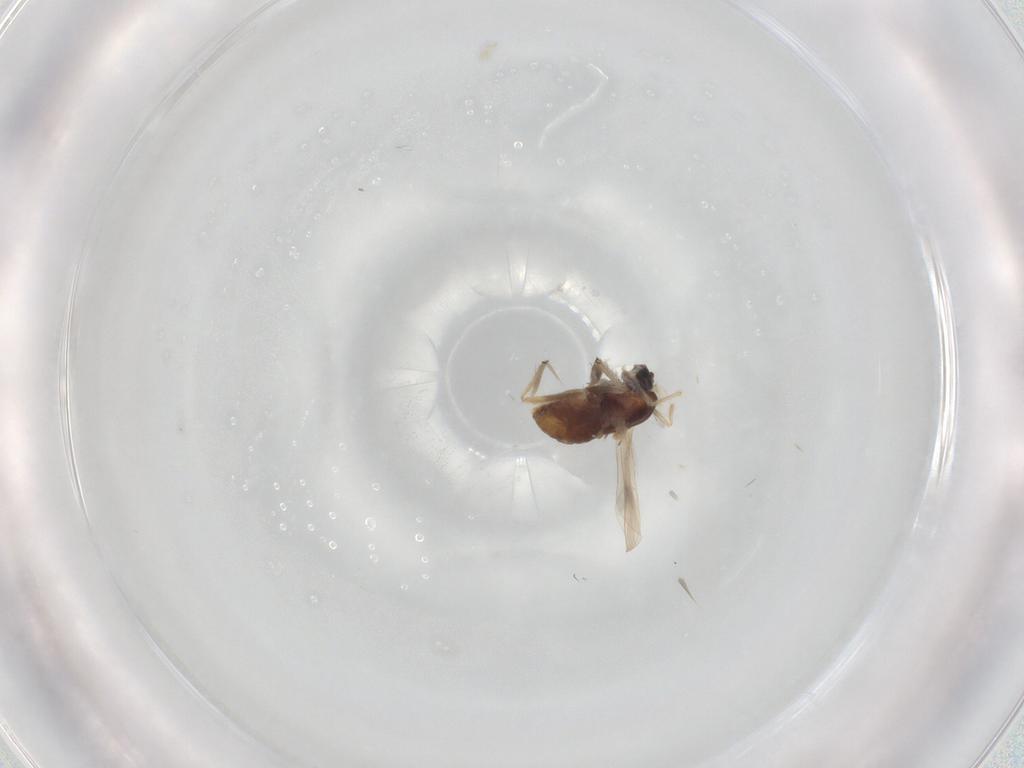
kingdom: Animalia
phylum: Arthropoda
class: Insecta
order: Diptera
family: Chironomidae
